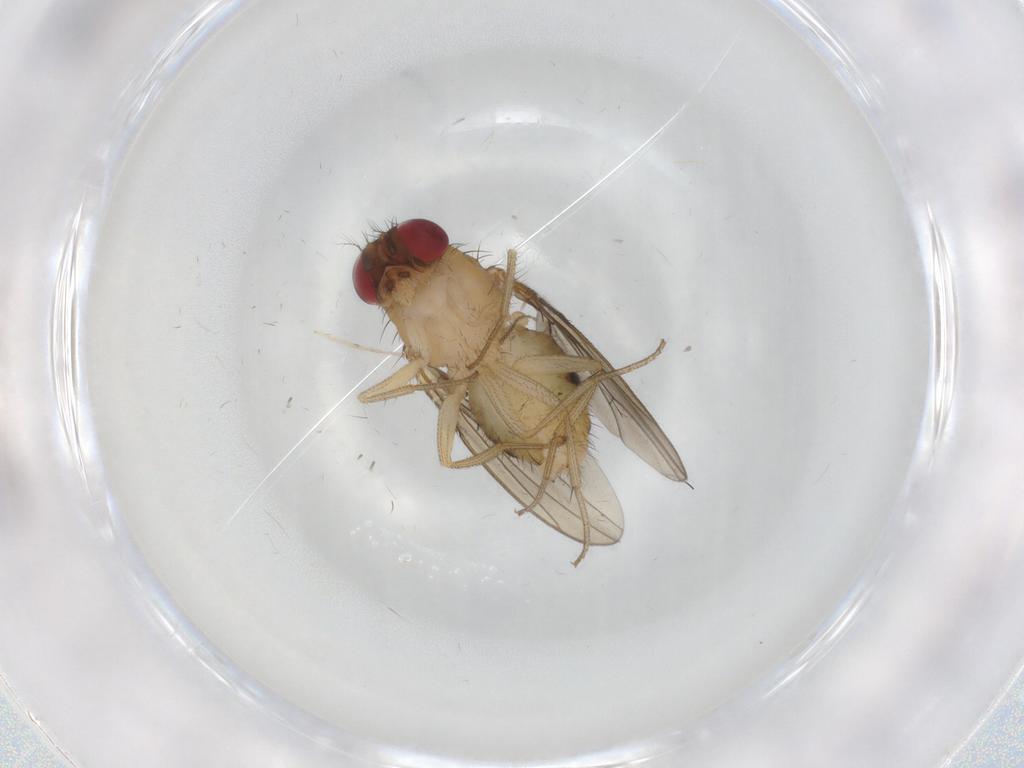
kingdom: Animalia
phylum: Arthropoda
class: Insecta
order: Diptera
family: Drosophilidae
